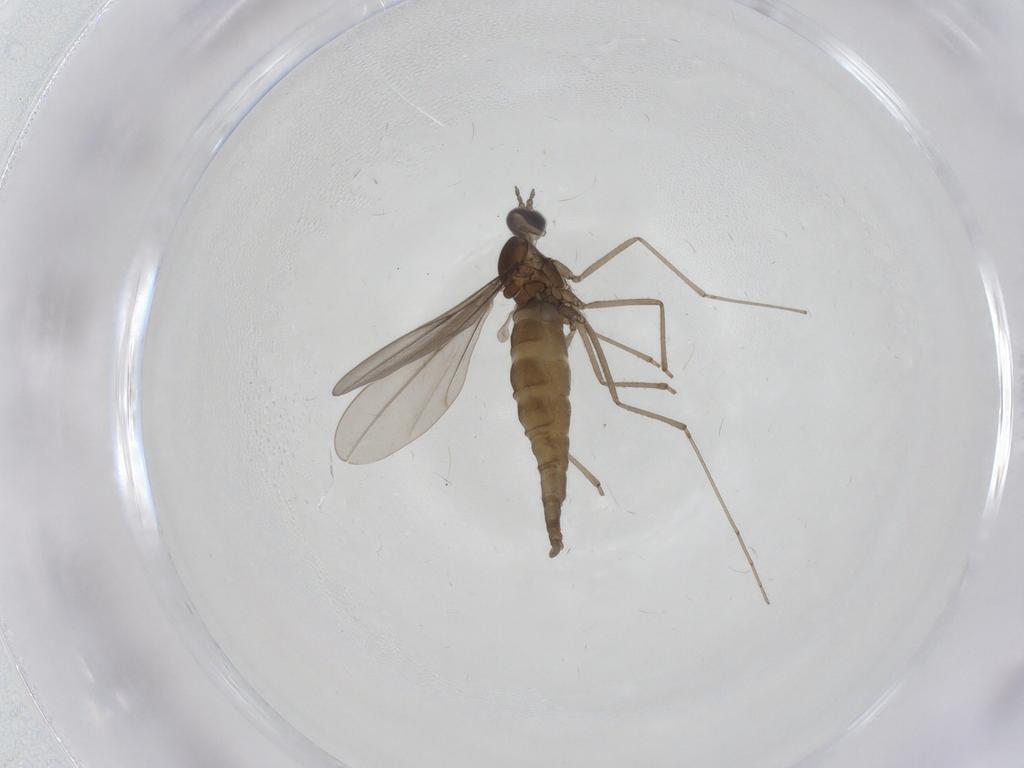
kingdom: Animalia
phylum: Arthropoda
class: Insecta
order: Diptera
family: Cecidomyiidae
